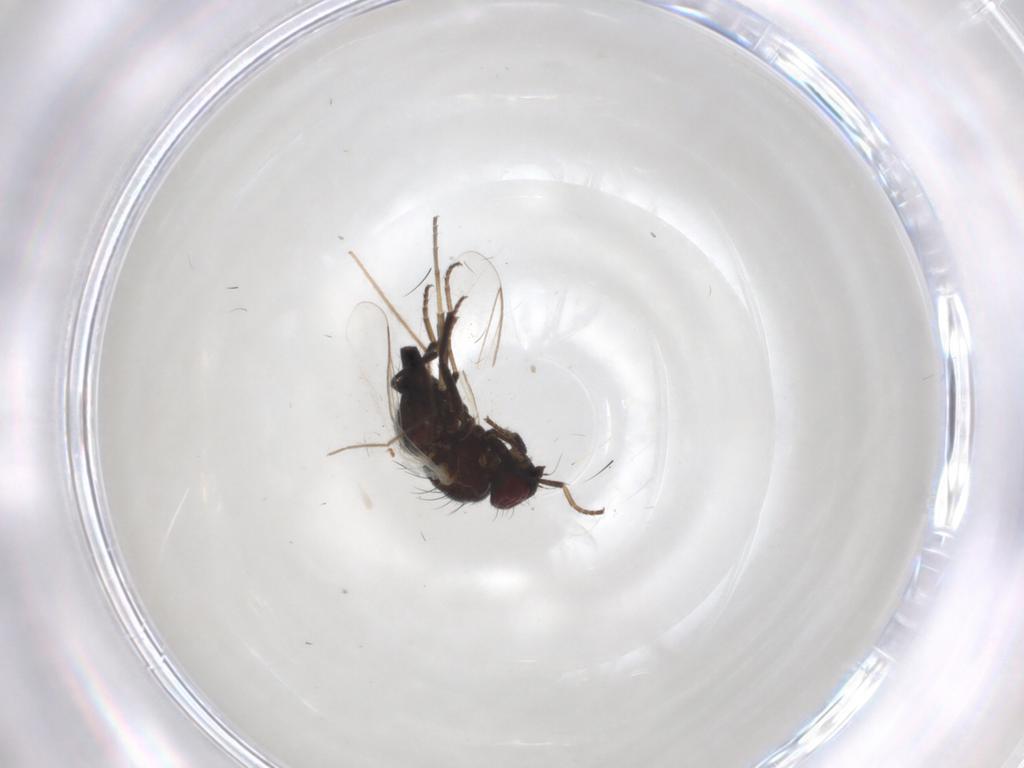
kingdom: Animalia
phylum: Arthropoda
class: Insecta
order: Diptera
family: Dolichopodidae
